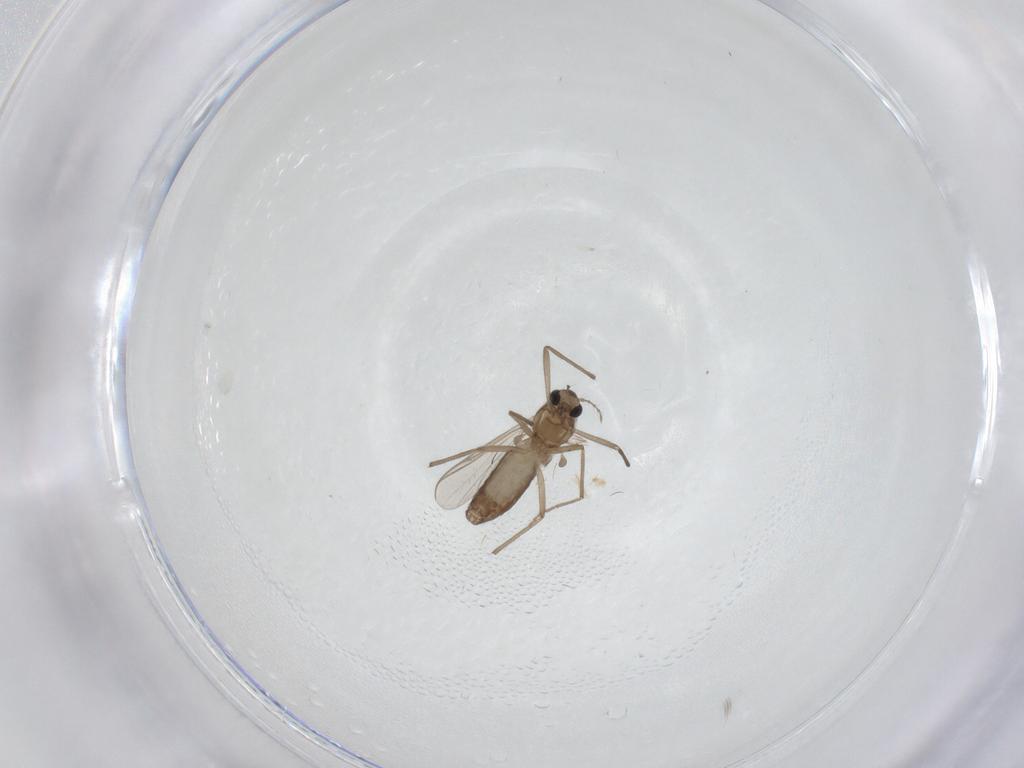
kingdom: Animalia
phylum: Arthropoda
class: Insecta
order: Diptera
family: Chironomidae
